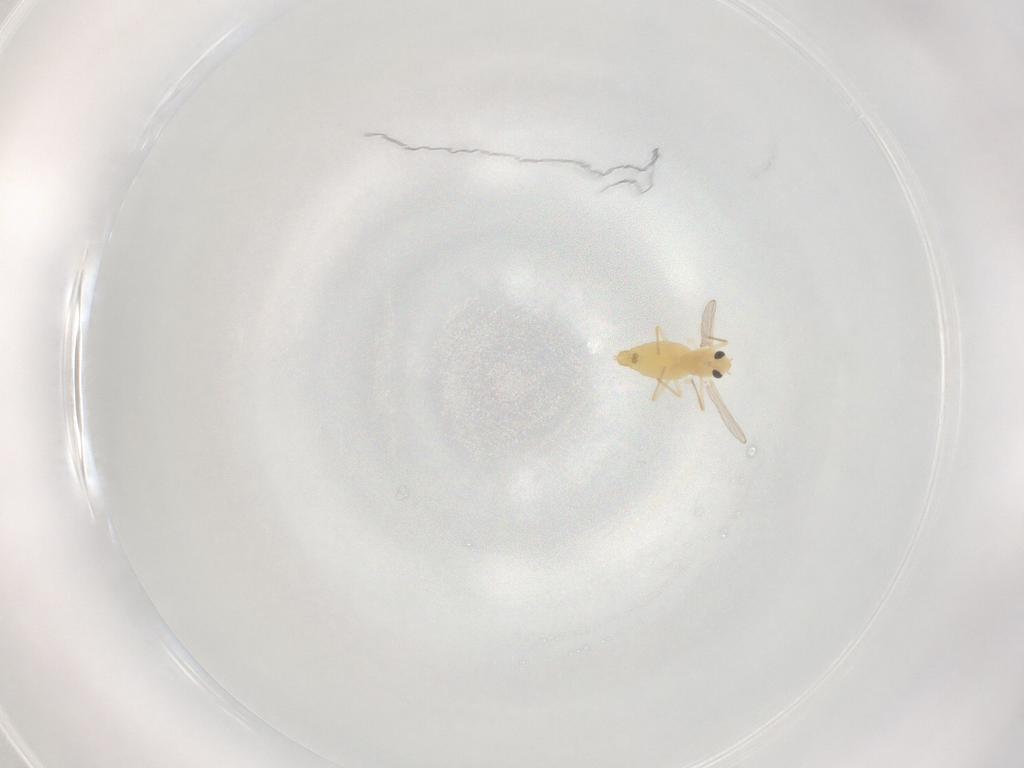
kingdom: Animalia
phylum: Arthropoda
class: Insecta
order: Diptera
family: Chironomidae
